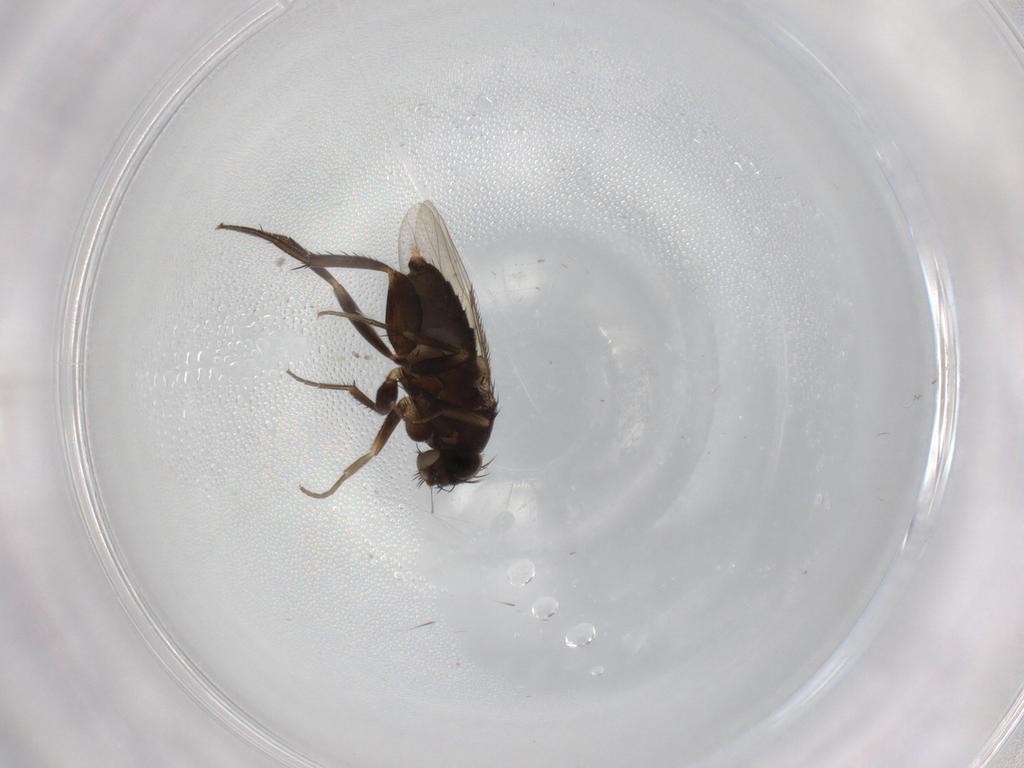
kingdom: Animalia
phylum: Arthropoda
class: Insecta
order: Diptera
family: Phoridae
